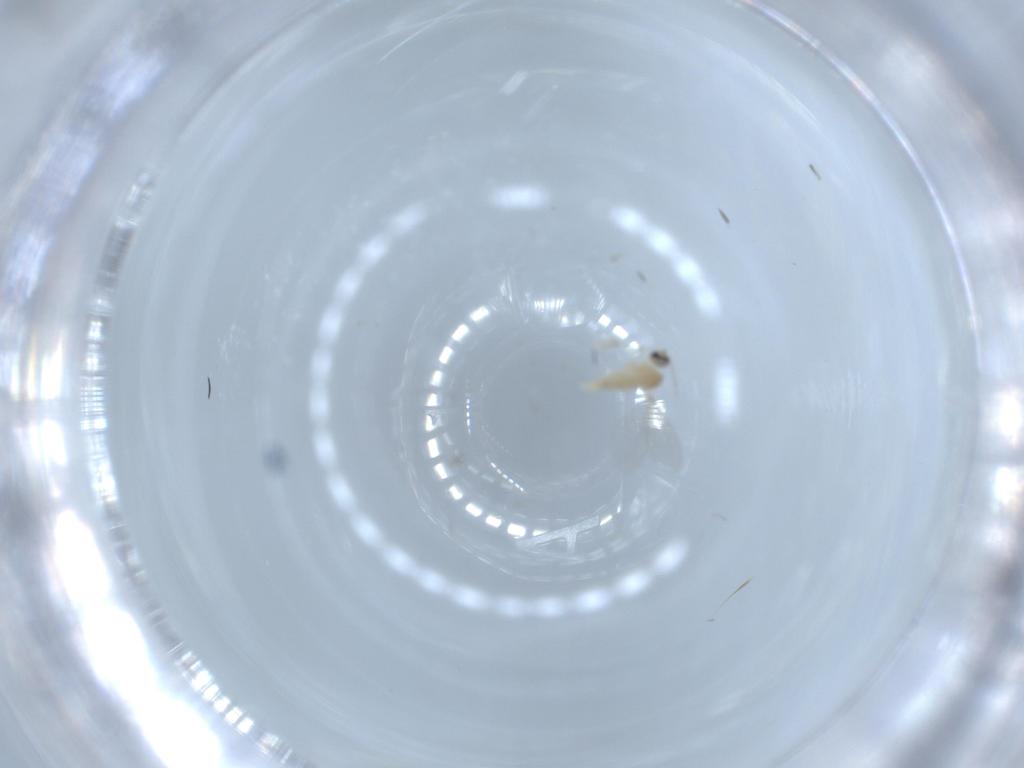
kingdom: Animalia
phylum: Arthropoda
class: Insecta
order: Diptera
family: Cecidomyiidae
